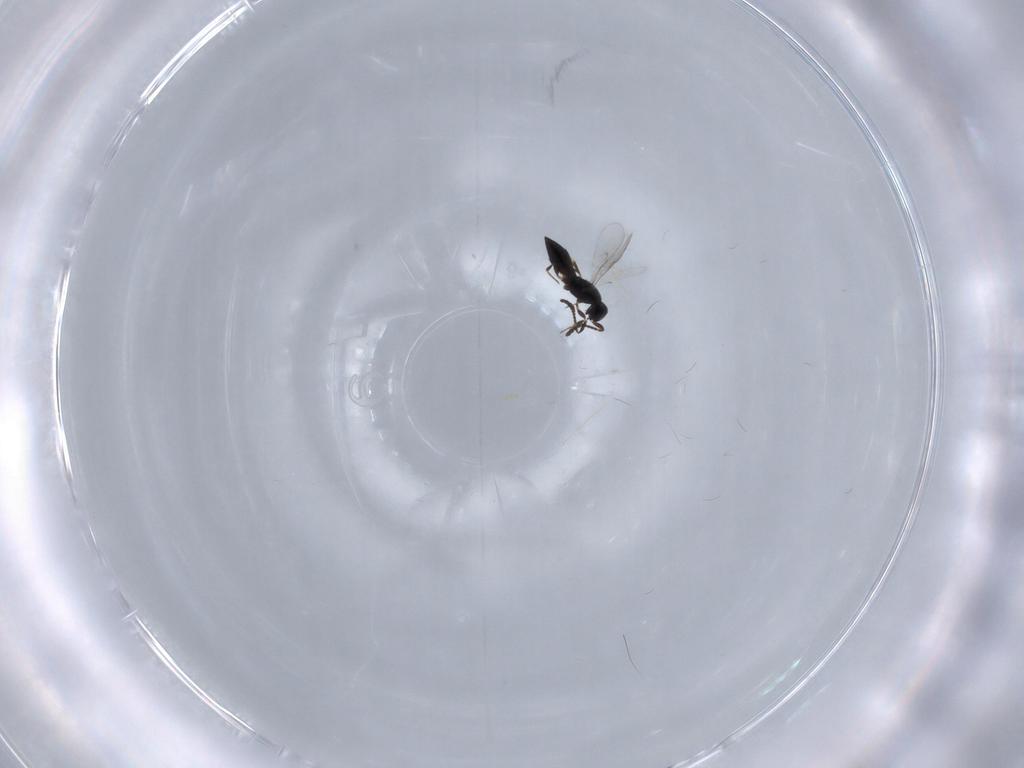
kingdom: Animalia
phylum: Arthropoda
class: Insecta
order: Hymenoptera
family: Scelionidae
